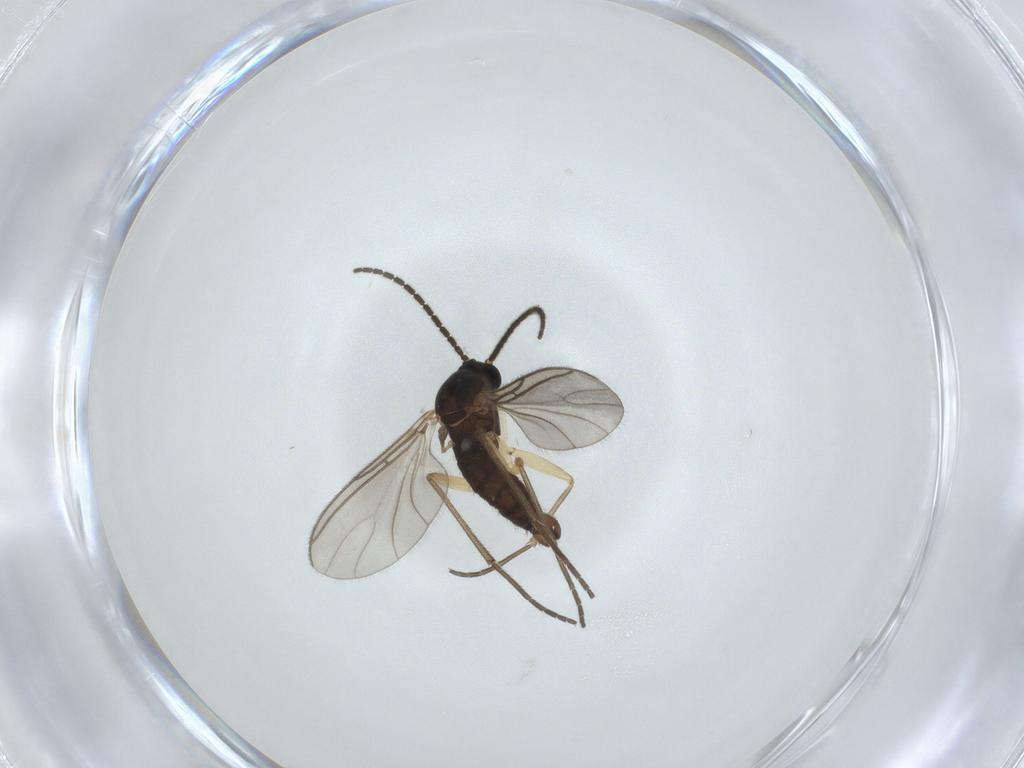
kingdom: Animalia
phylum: Arthropoda
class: Insecta
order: Diptera
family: Sciaridae
